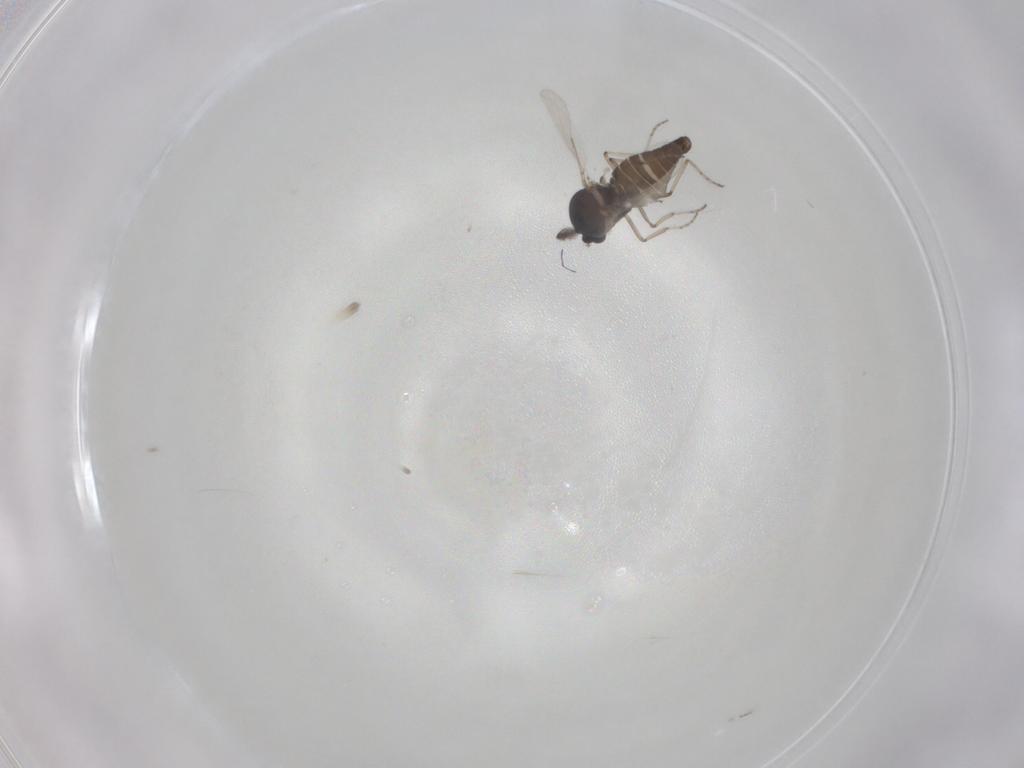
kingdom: Animalia
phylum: Arthropoda
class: Insecta
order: Diptera
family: Ceratopogonidae
